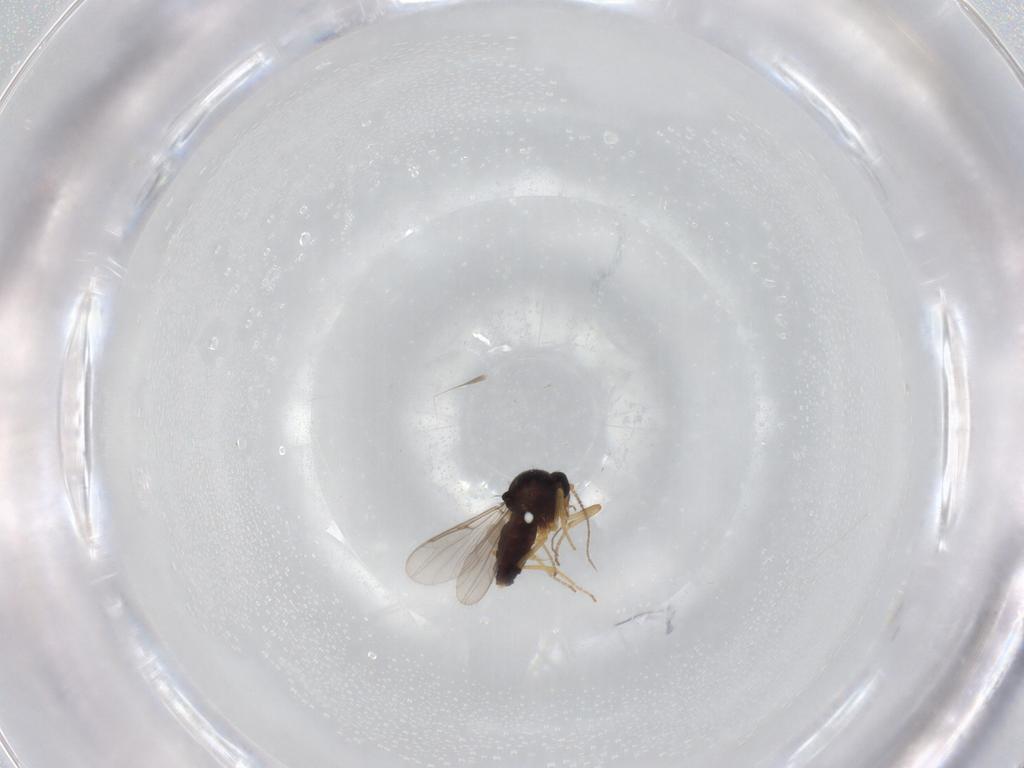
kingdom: Animalia
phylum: Arthropoda
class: Insecta
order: Diptera
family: Ceratopogonidae
